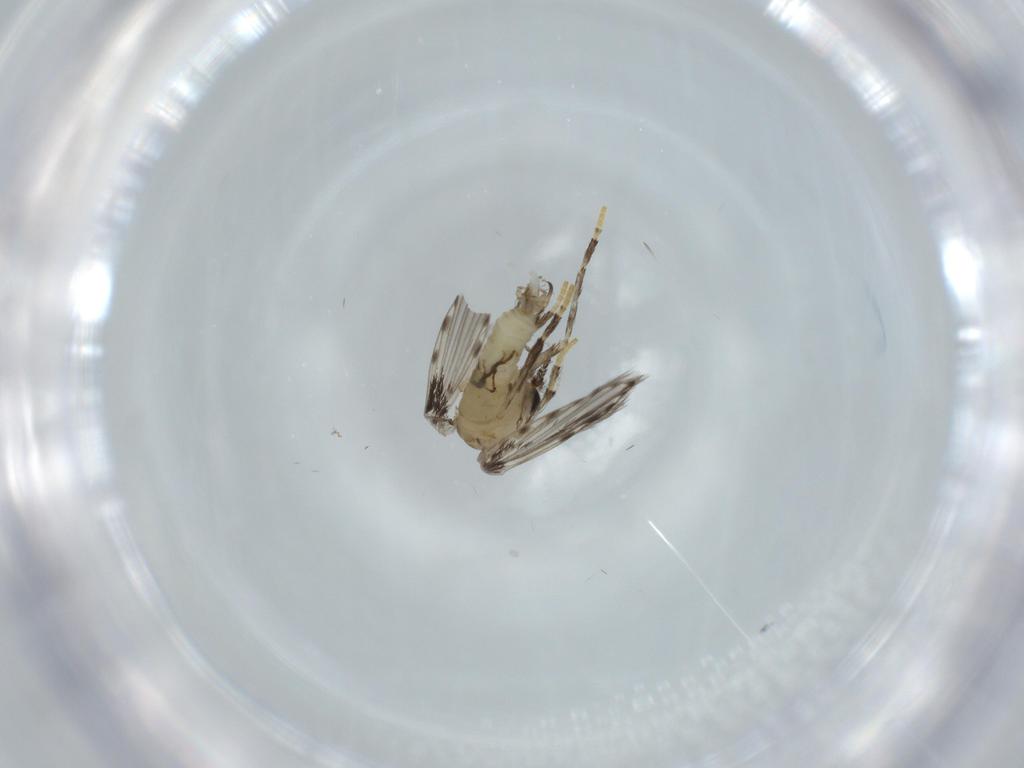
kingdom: Animalia
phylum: Arthropoda
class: Insecta
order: Diptera
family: Psychodidae
